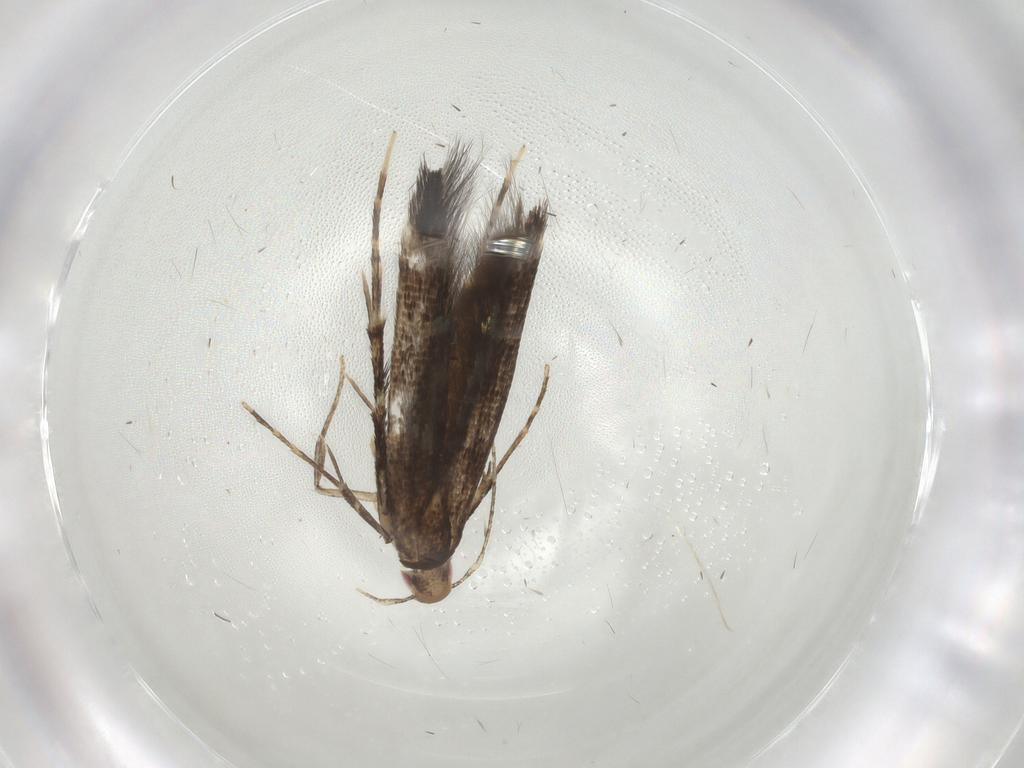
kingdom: Animalia
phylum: Arthropoda
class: Insecta
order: Lepidoptera
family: Cosmopterigidae
